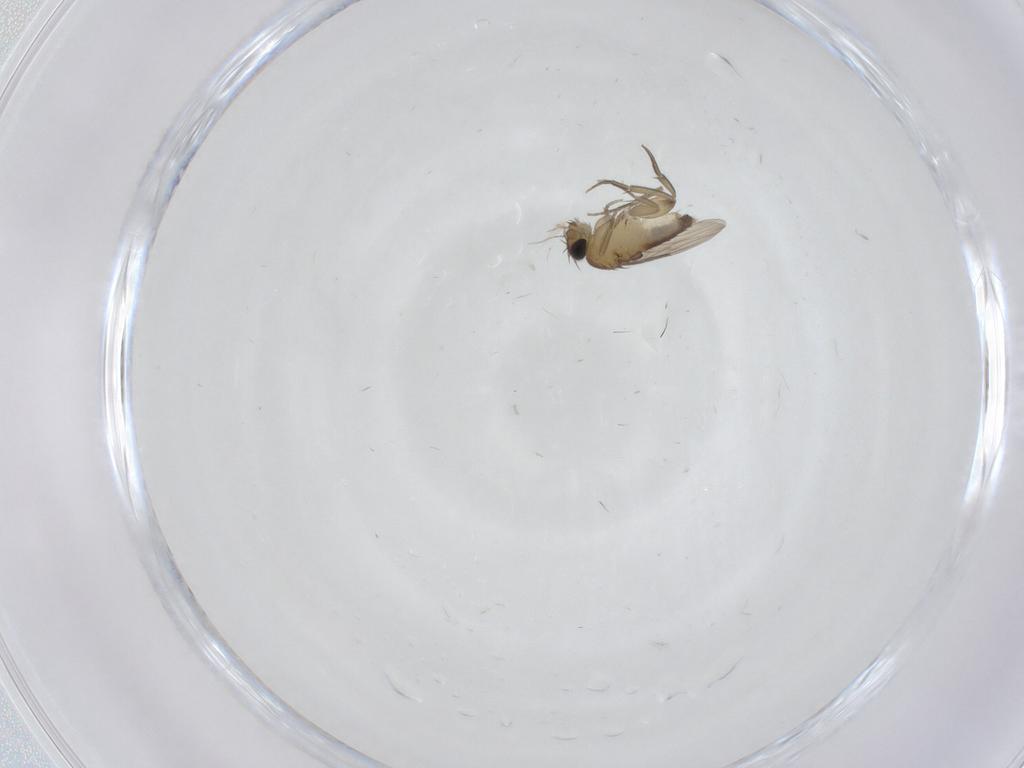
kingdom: Animalia
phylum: Arthropoda
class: Insecta
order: Diptera
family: Phoridae
